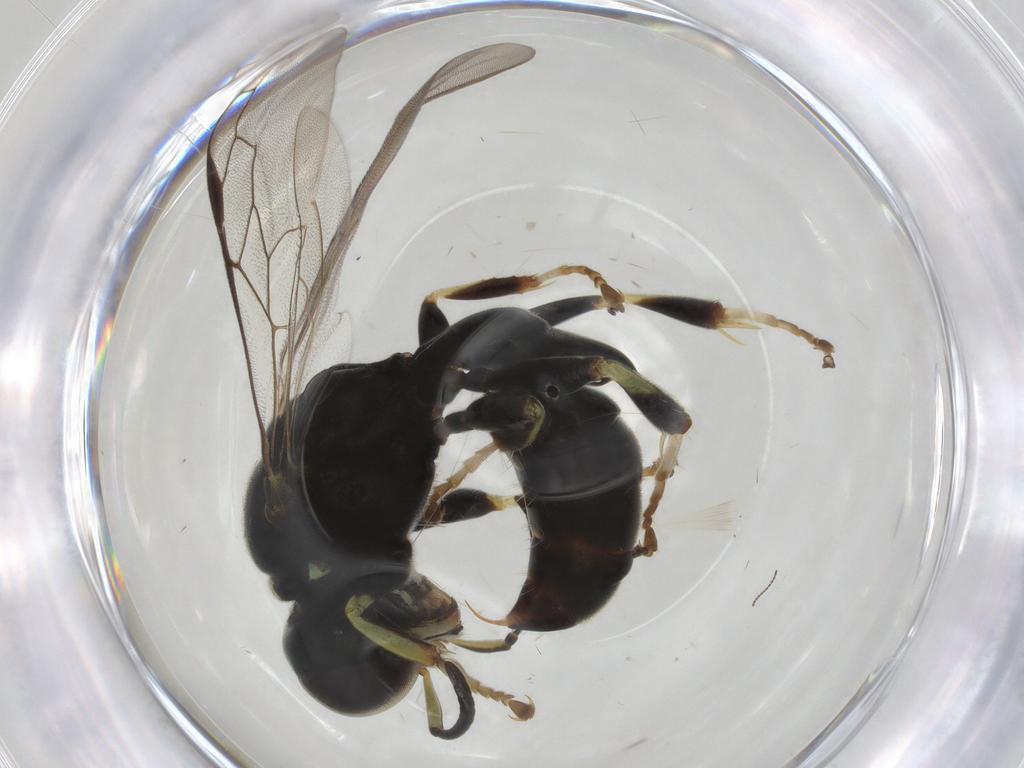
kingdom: Animalia
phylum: Arthropoda
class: Insecta
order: Hymenoptera
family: Crabronidae
